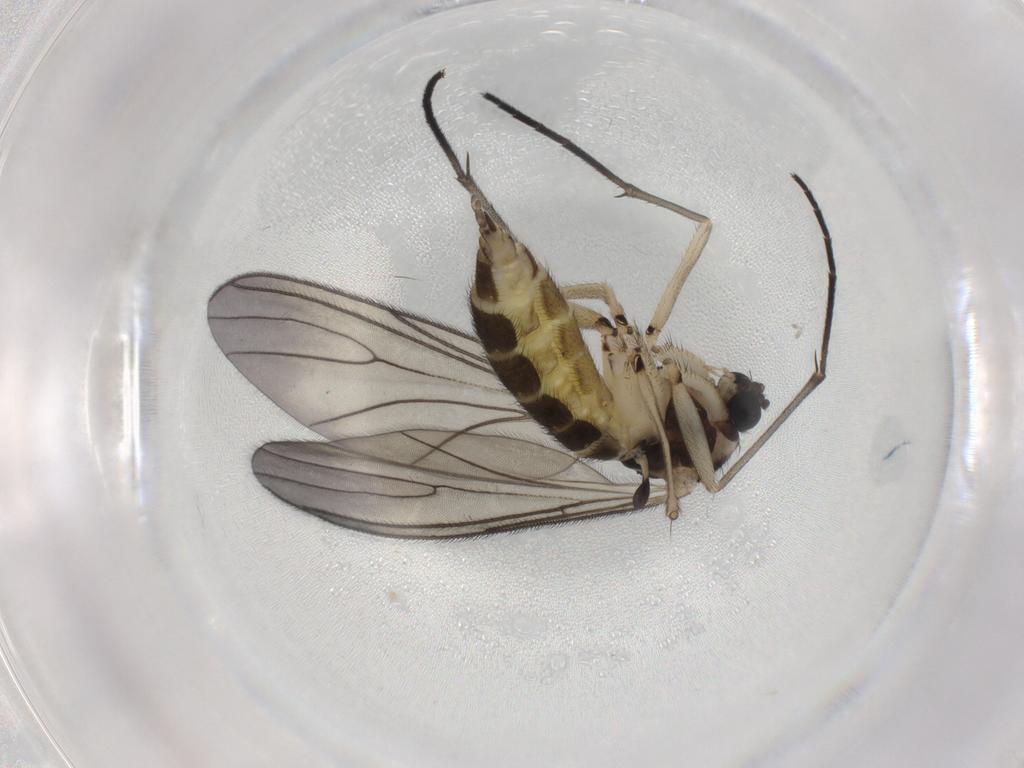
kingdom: Animalia
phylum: Arthropoda
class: Insecta
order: Diptera
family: Sciaridae
